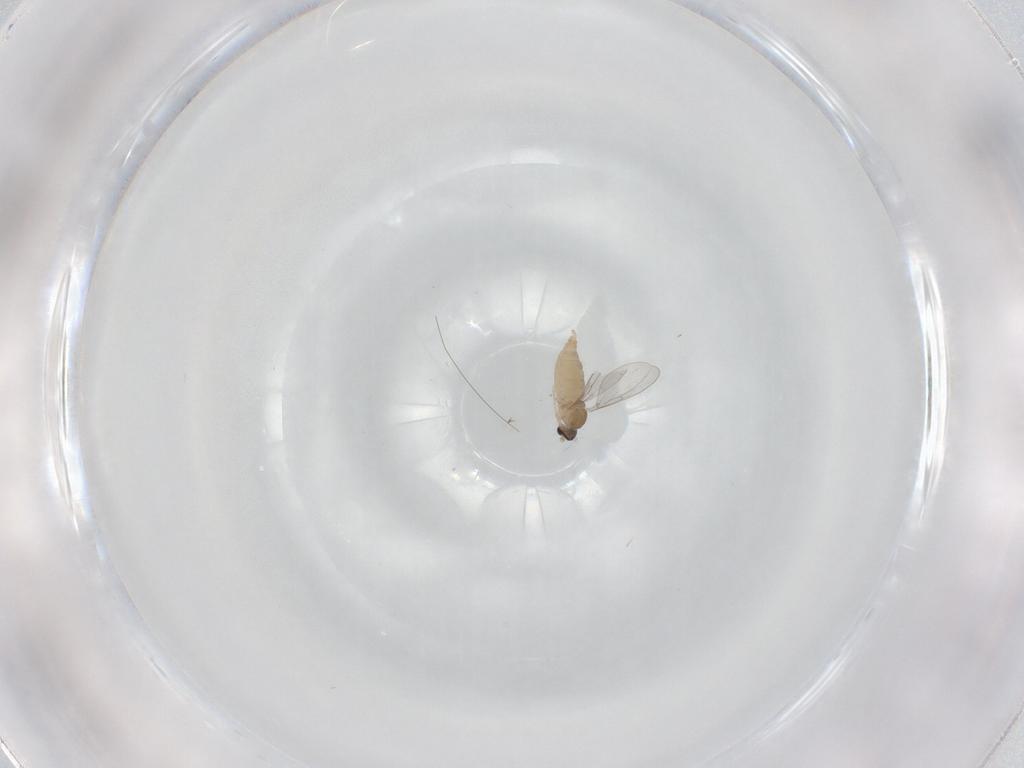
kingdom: Animalia
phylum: Arthropoda
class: Insecta
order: Diptera
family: Cecidomyiidae
